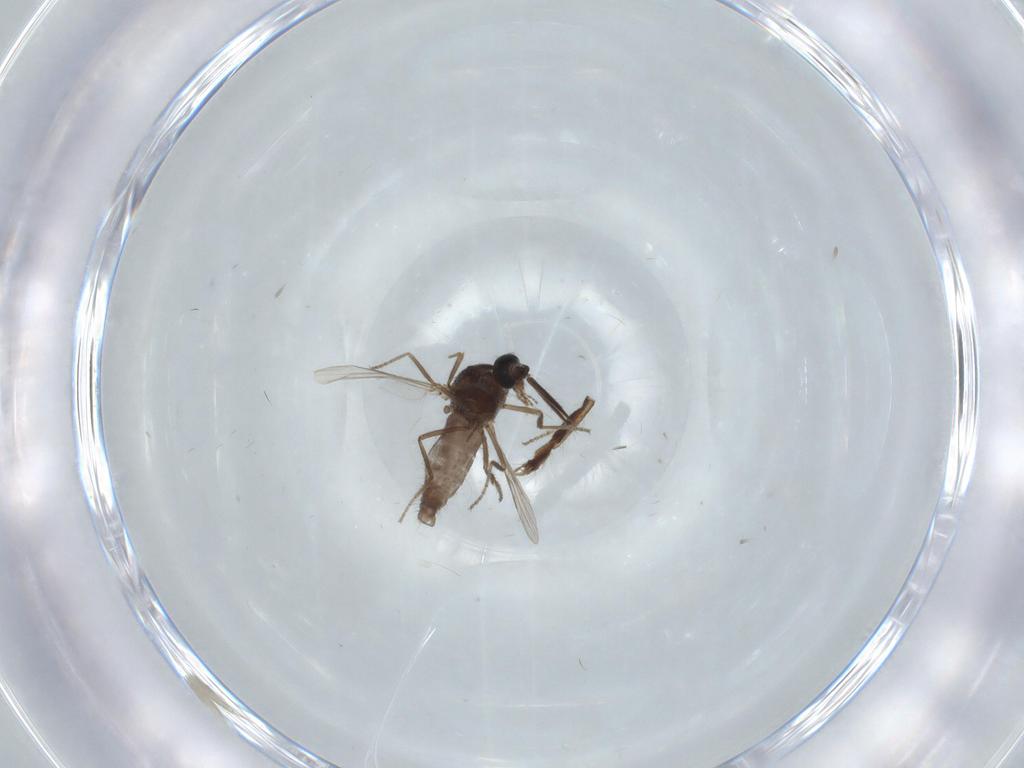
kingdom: Animalia
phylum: Arthropoda
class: Insecta
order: Diptera
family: Ceratopogonidae
